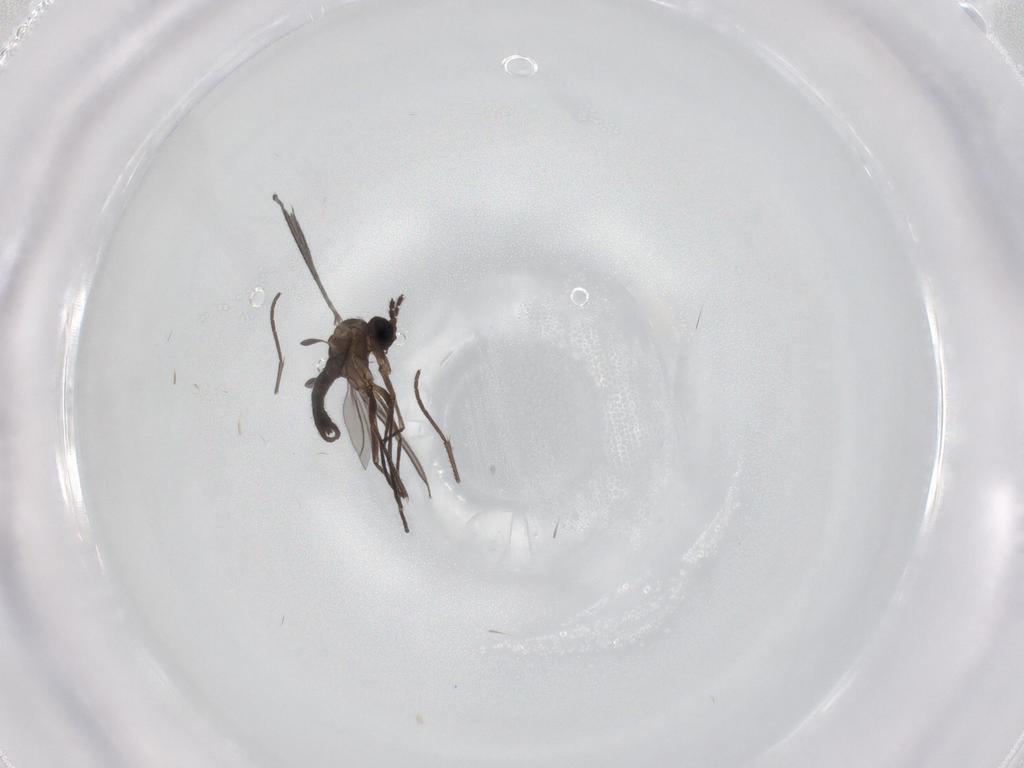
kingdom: Animalia
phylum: Arthropoda
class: Insecta
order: Diptera
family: Sciaridae
